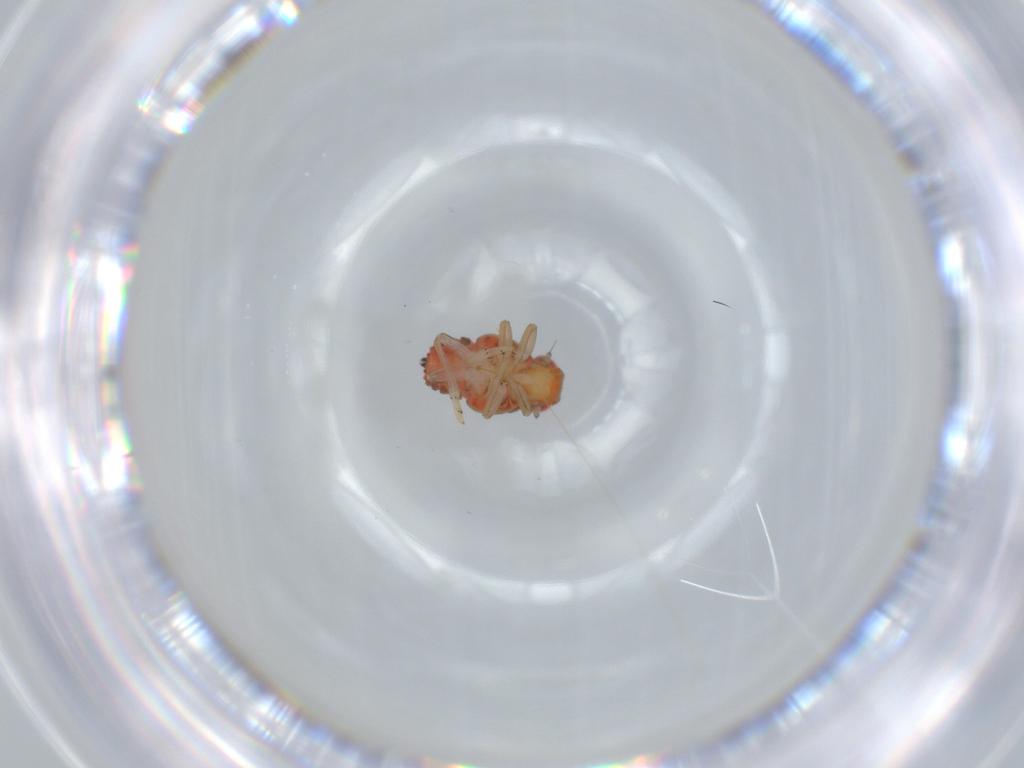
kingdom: Animalia
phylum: Arthropoda
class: Insecta
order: Hemiptera
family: Issidae
